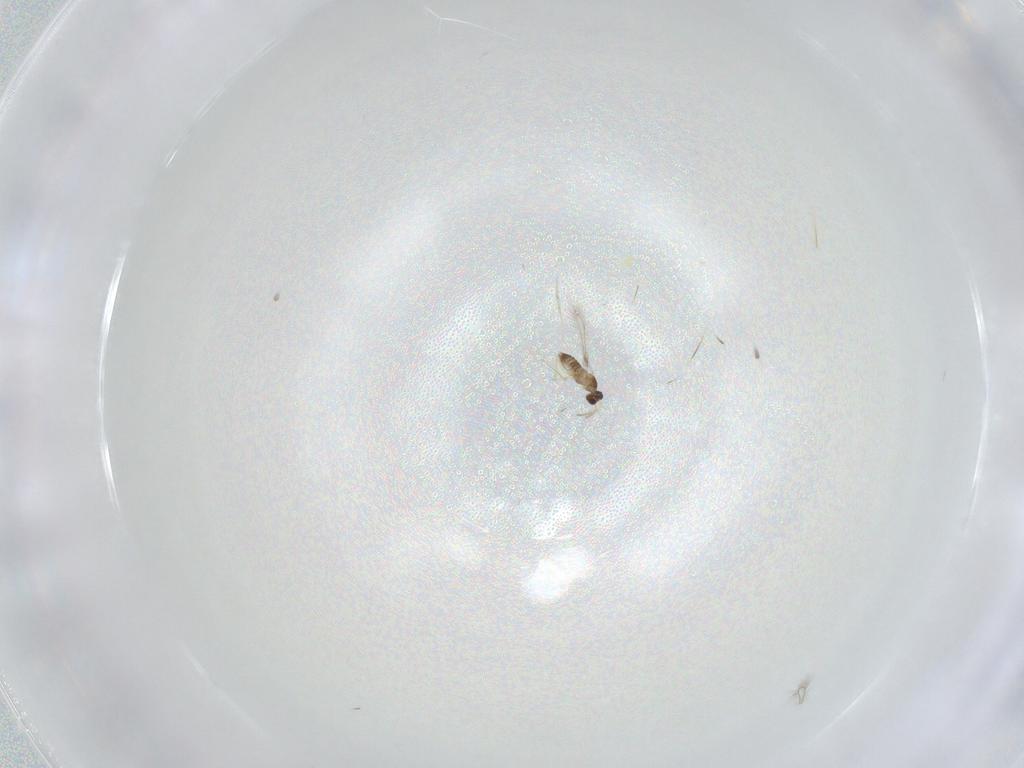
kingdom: Animalia
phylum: Arthropoda
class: Insecta
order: Hymenoptera
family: Mymaridae
